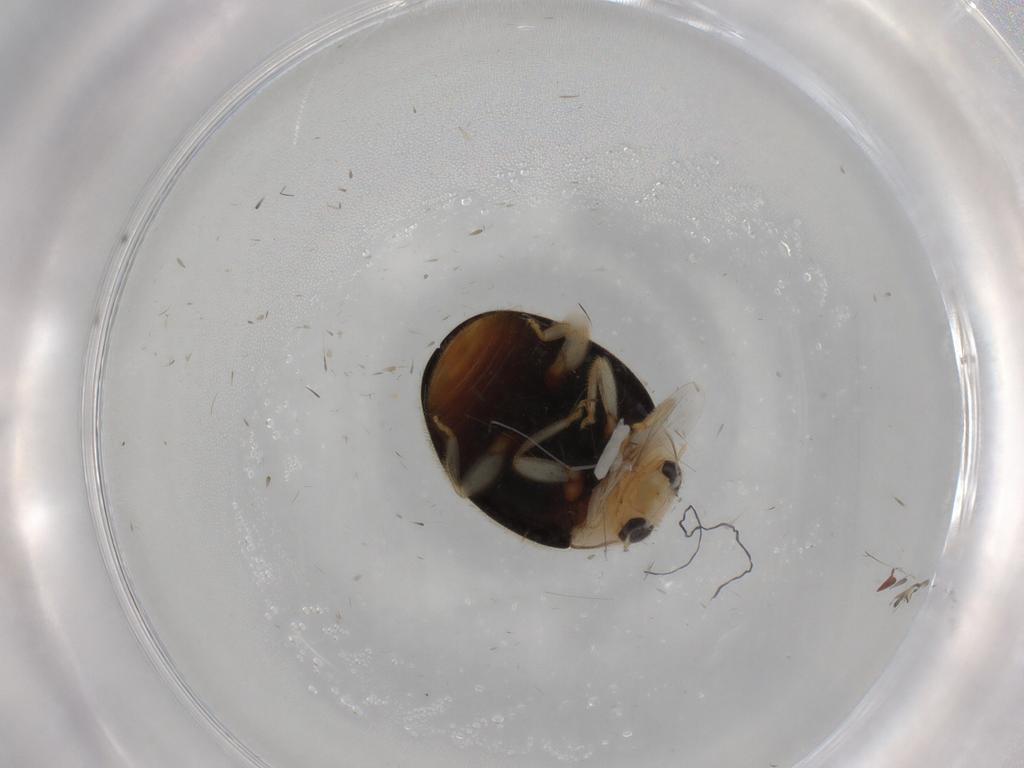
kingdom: Animalia
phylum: Arthropoda
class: Insecta
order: Coleoptera
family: Coccinellidae
